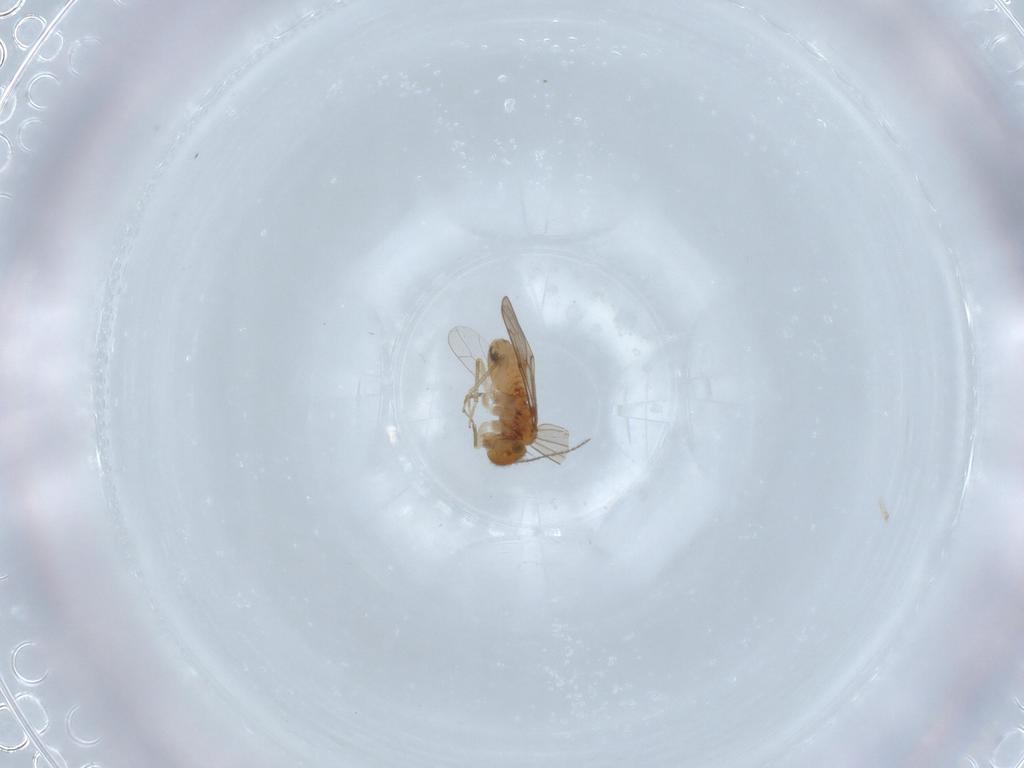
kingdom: Animalia
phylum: Arthropoda
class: Insecta
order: Psocodea
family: Ectopsocidae
